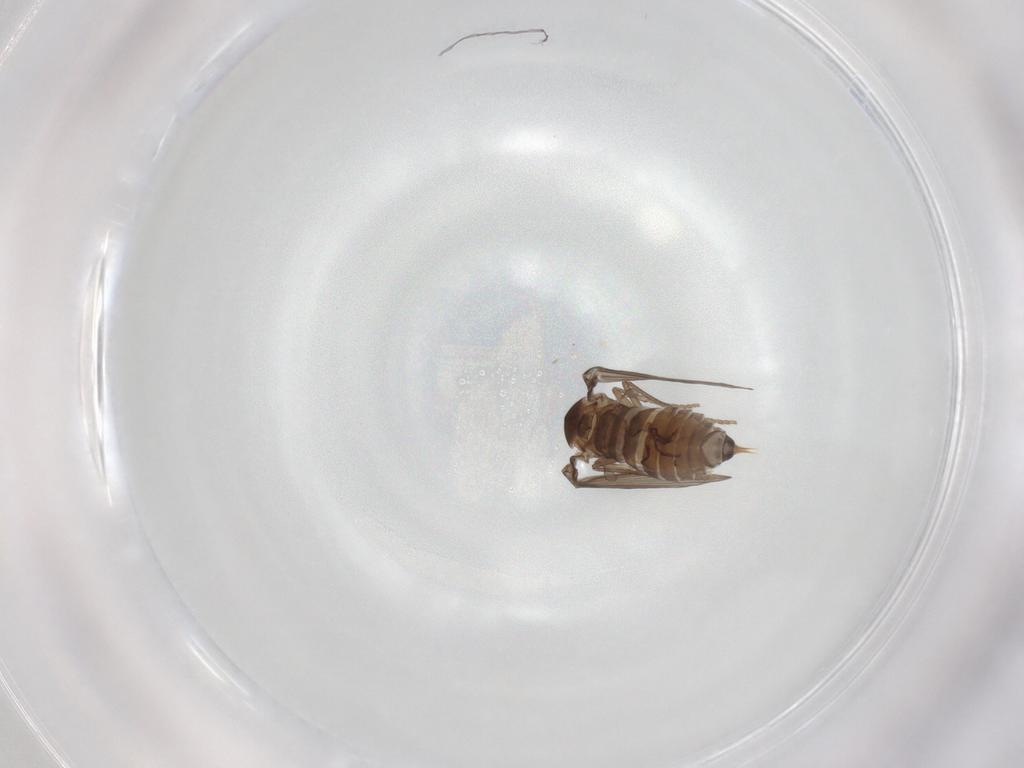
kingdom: Animalia
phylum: Arthropoda
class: Insecta
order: Diptera
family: Psychodidae
